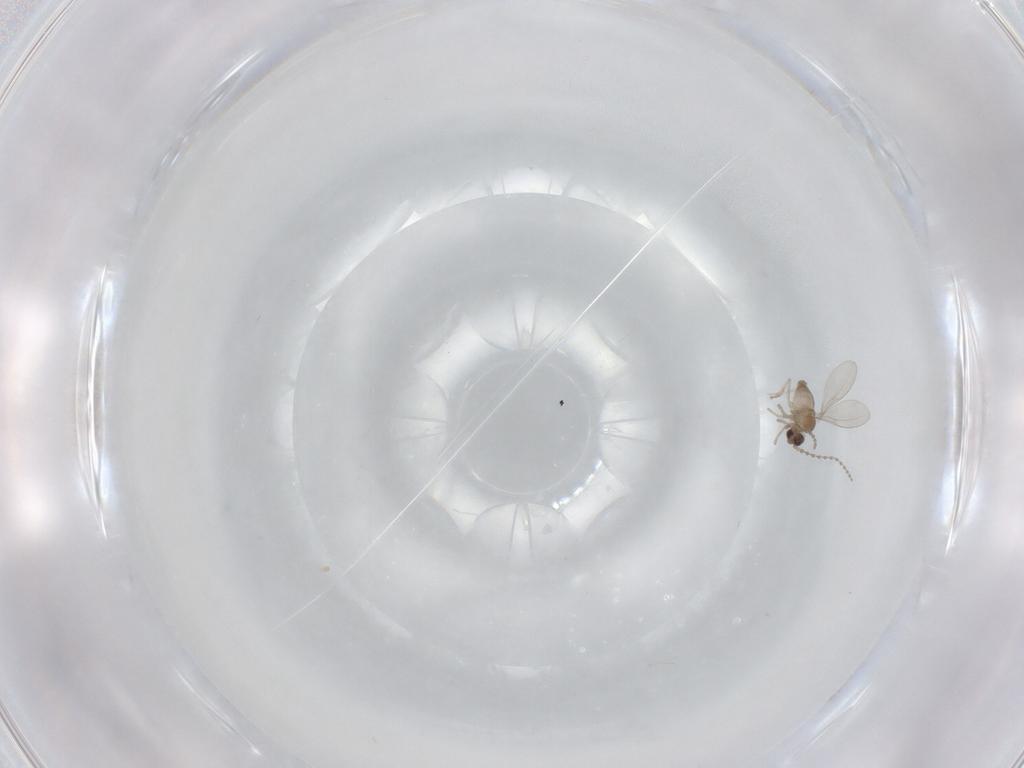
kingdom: Animalia
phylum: Arthropoda
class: Insecta
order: Diptera
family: Cecidomyiidae
